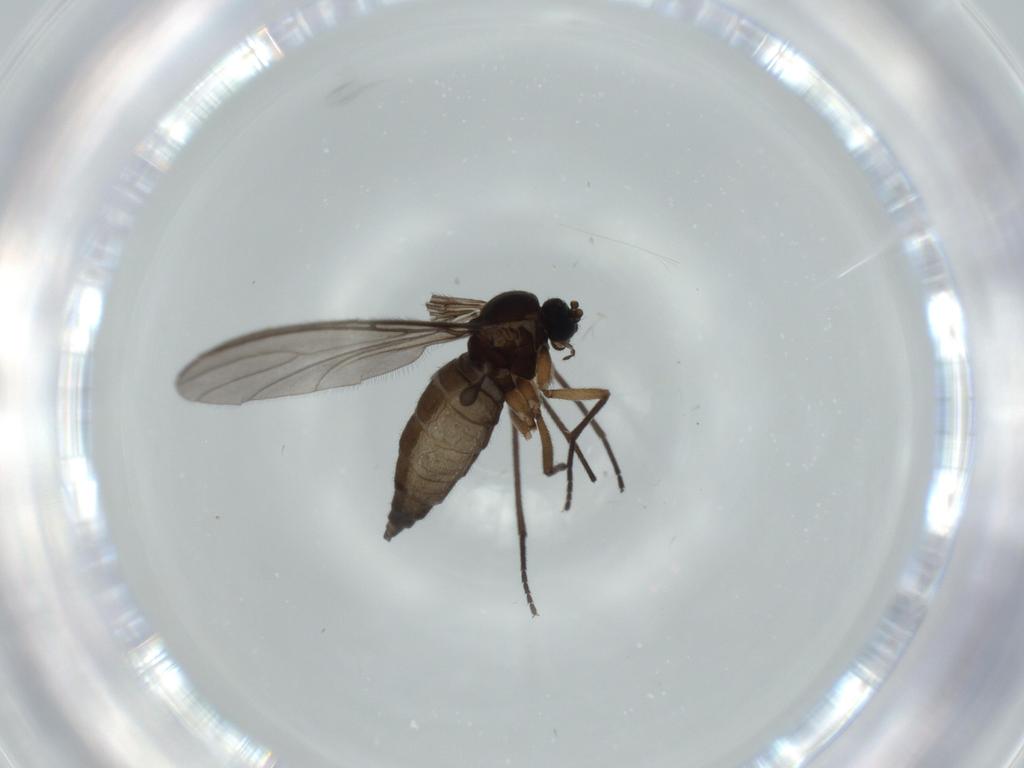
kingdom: Animalia
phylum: Arthropoda
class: Insecta
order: Diptera
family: Sciaridae
